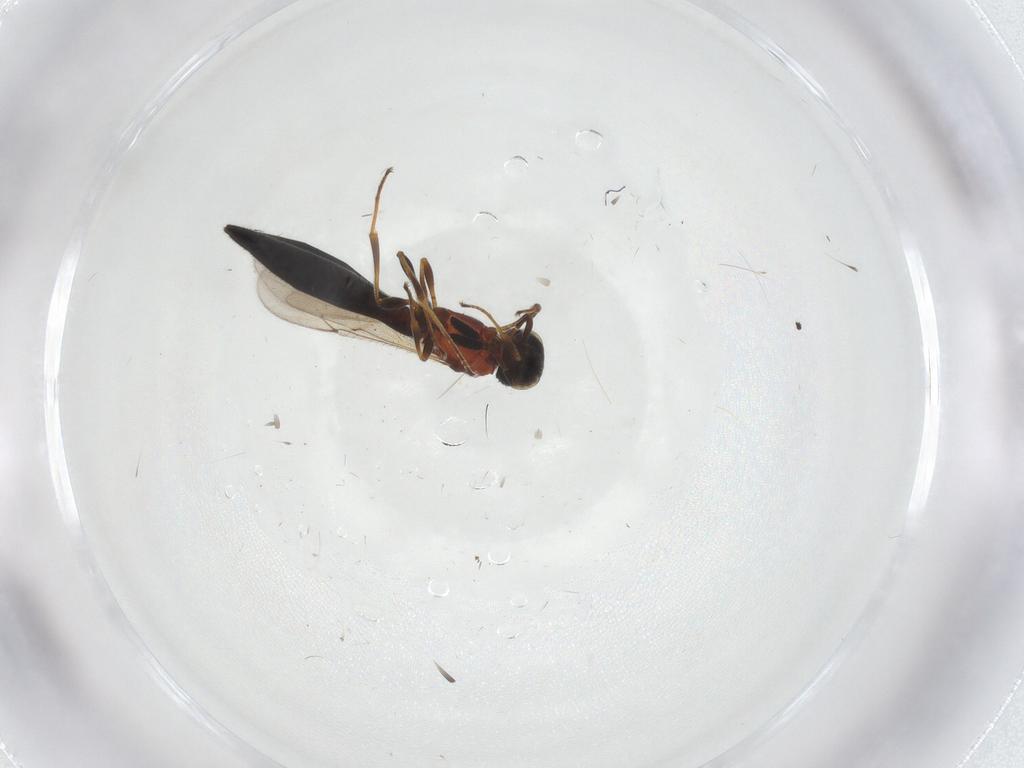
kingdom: Animalia
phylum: Arthropoda
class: Insecta
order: Hymenoptera
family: Scelionidae
